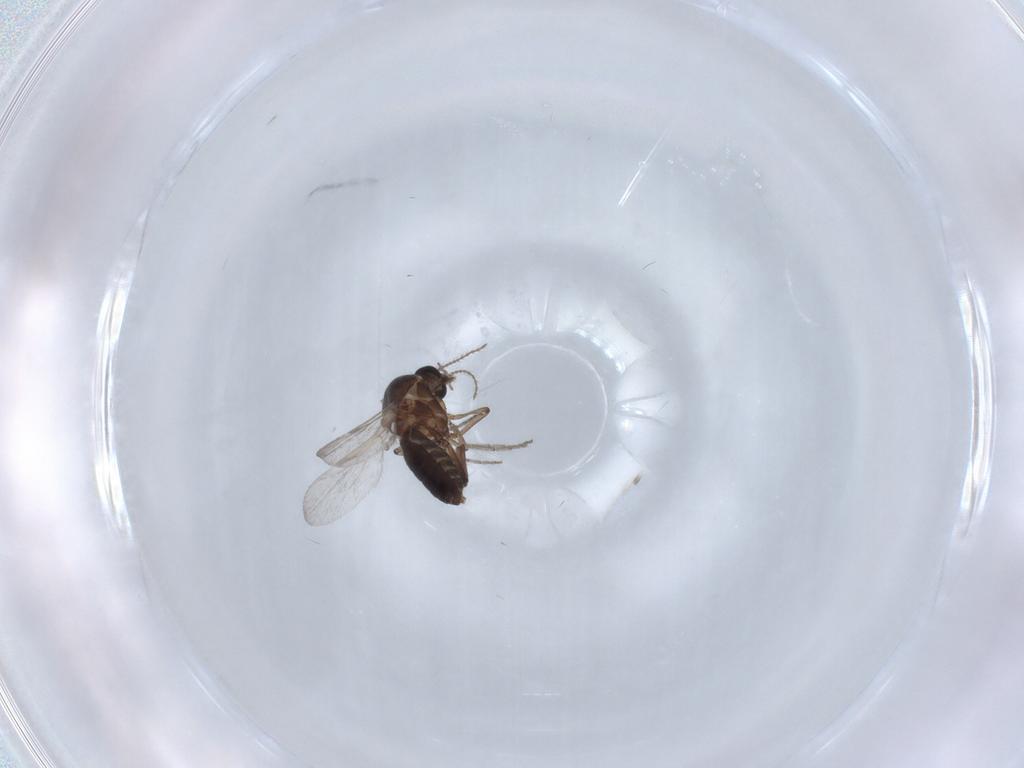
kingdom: Animalia
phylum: Arthropoda
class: Insecta
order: Diptera
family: Ceratopogonidae
